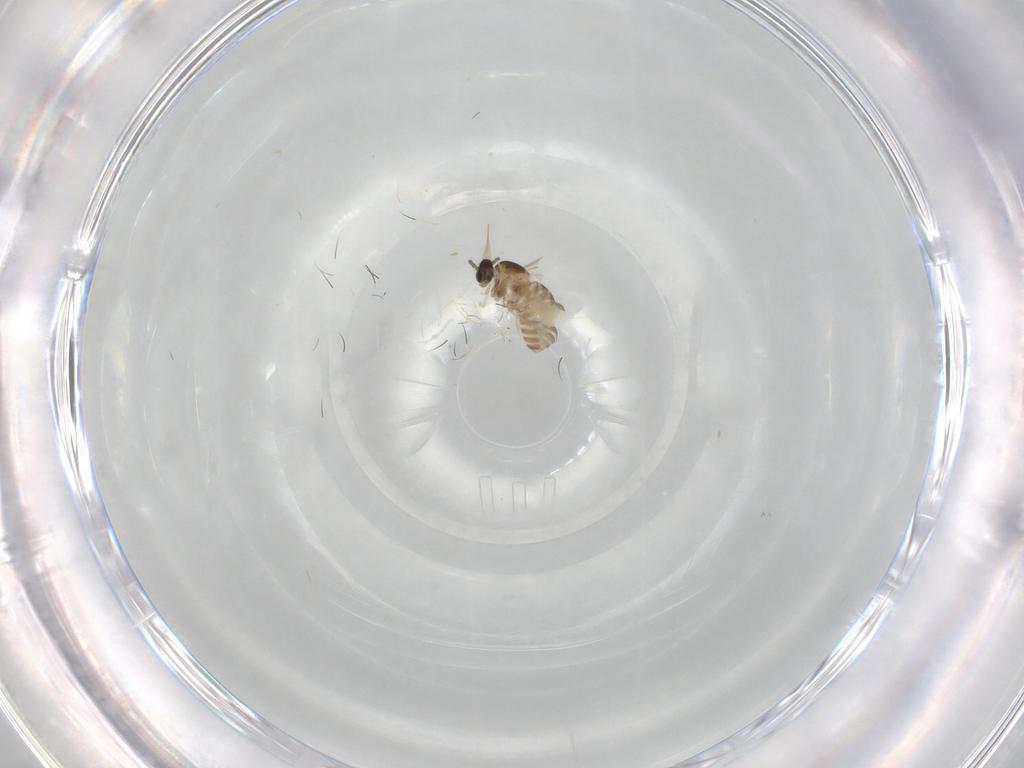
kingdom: Animalia
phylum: Arthropoda
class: Insecta
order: Diptera
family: Cecidomyiidae
